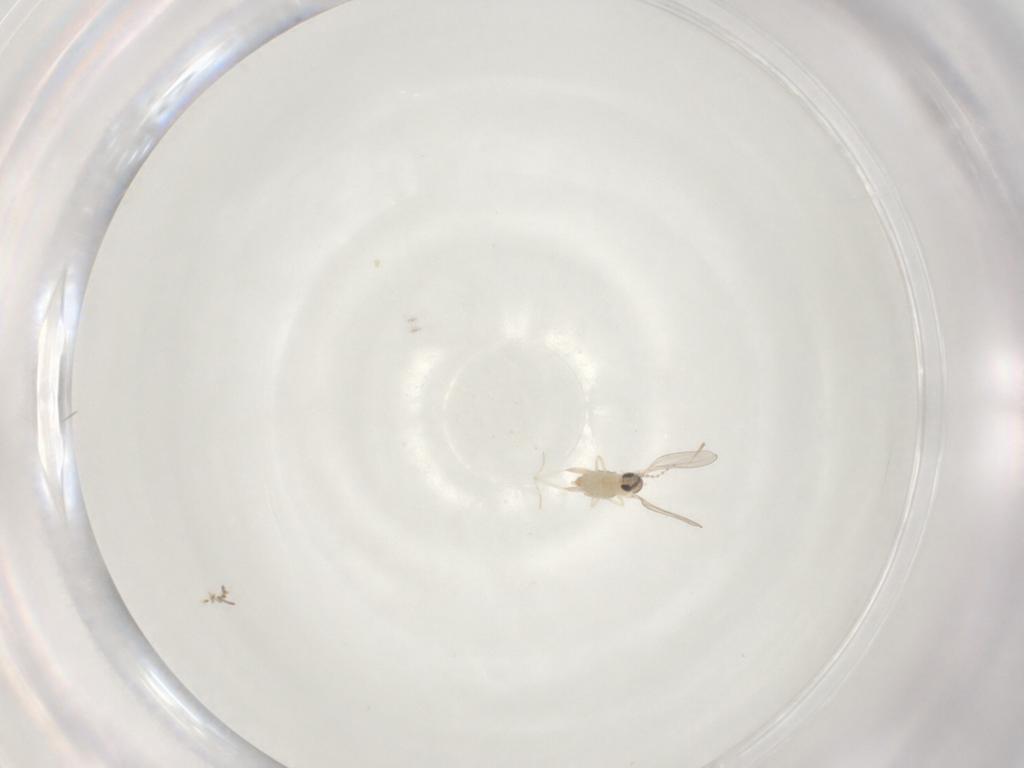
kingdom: Animalia
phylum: Arthropoda
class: Insecta
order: Diptera
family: Cecidomyiidae
